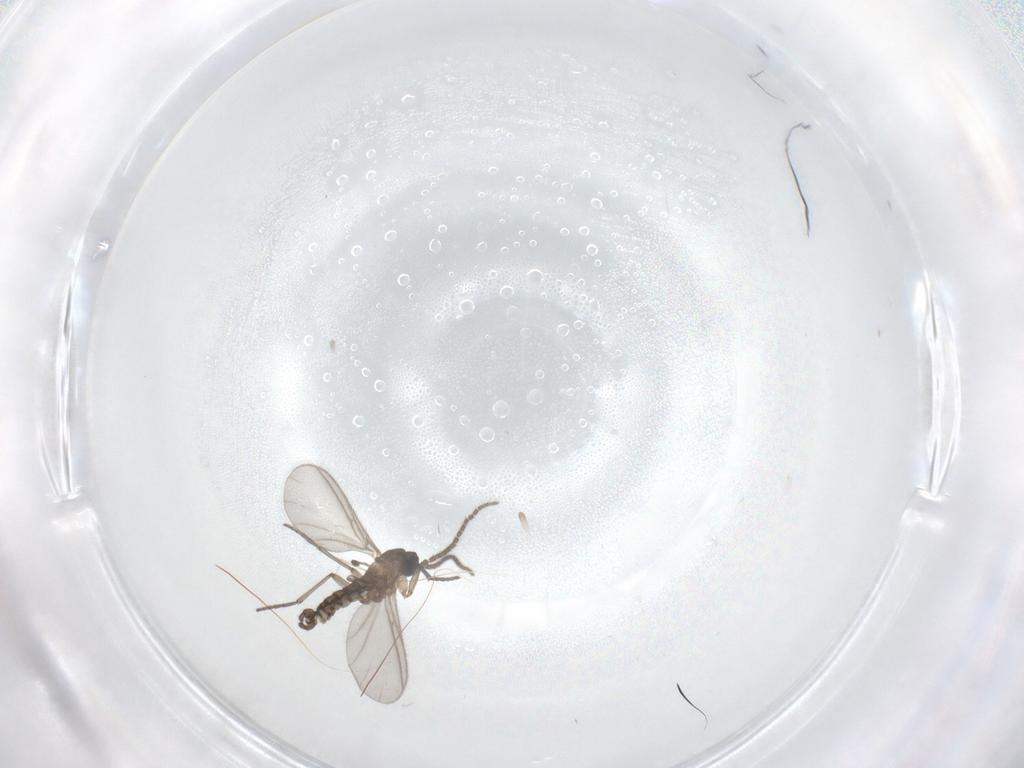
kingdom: Animalia
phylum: Arthropoda
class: Insecta
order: Diptera
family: Sciaridae
